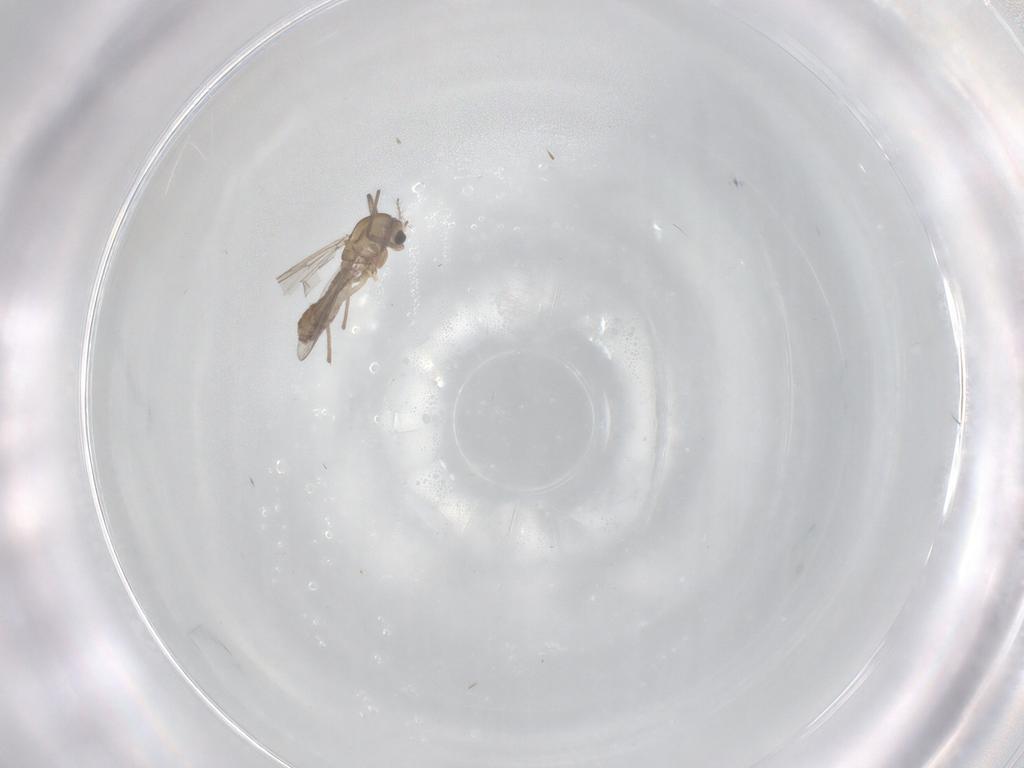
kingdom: Animalia
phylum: Arthropoda
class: Insecta
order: Diptera
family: Chironomidae
